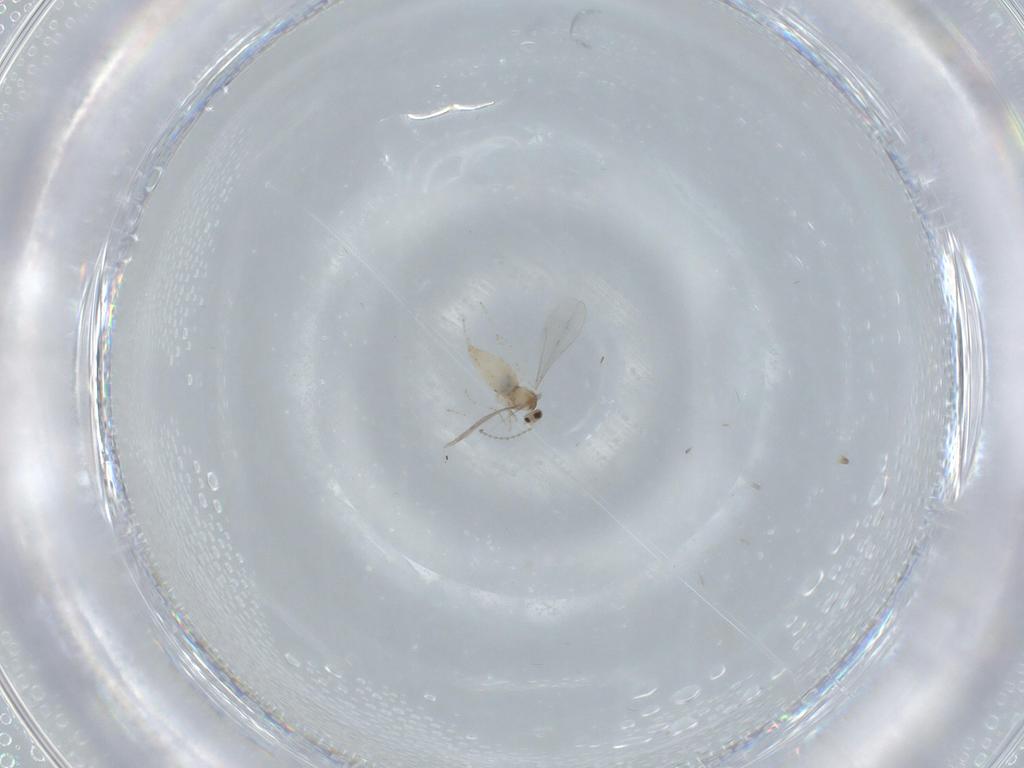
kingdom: Animalia
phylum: Arthropoda
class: Insecta
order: Diptera
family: Cecidomyiidae
